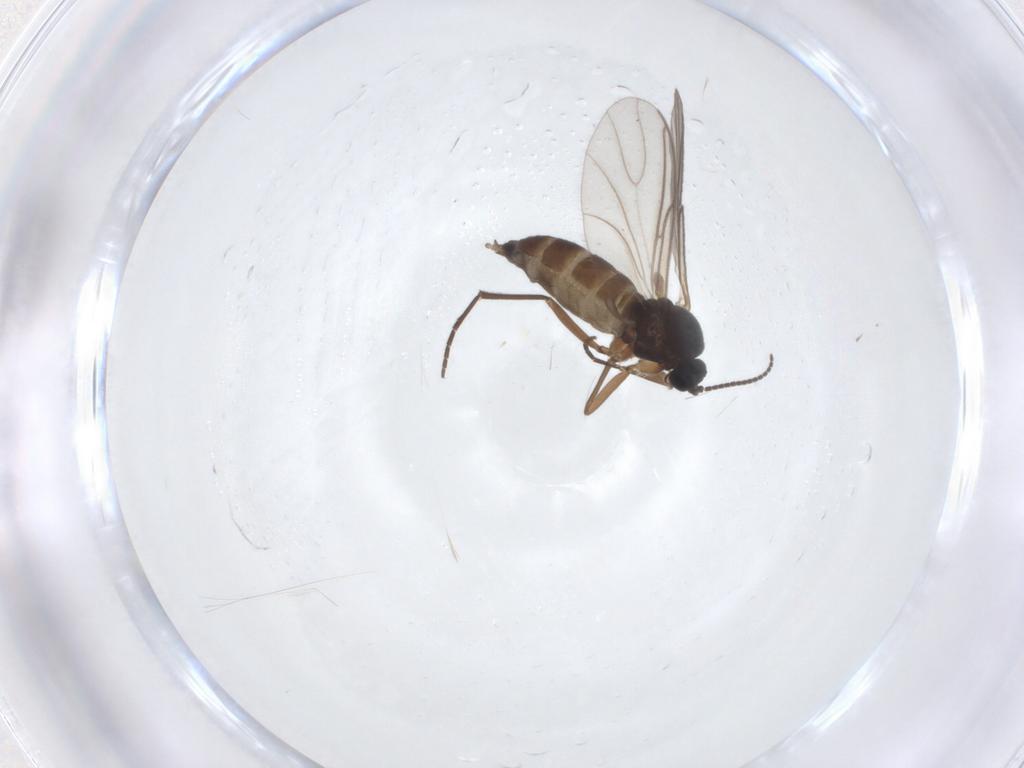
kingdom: Animalia
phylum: Arthropoda
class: Insecta
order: Diptera
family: Sciaridae
